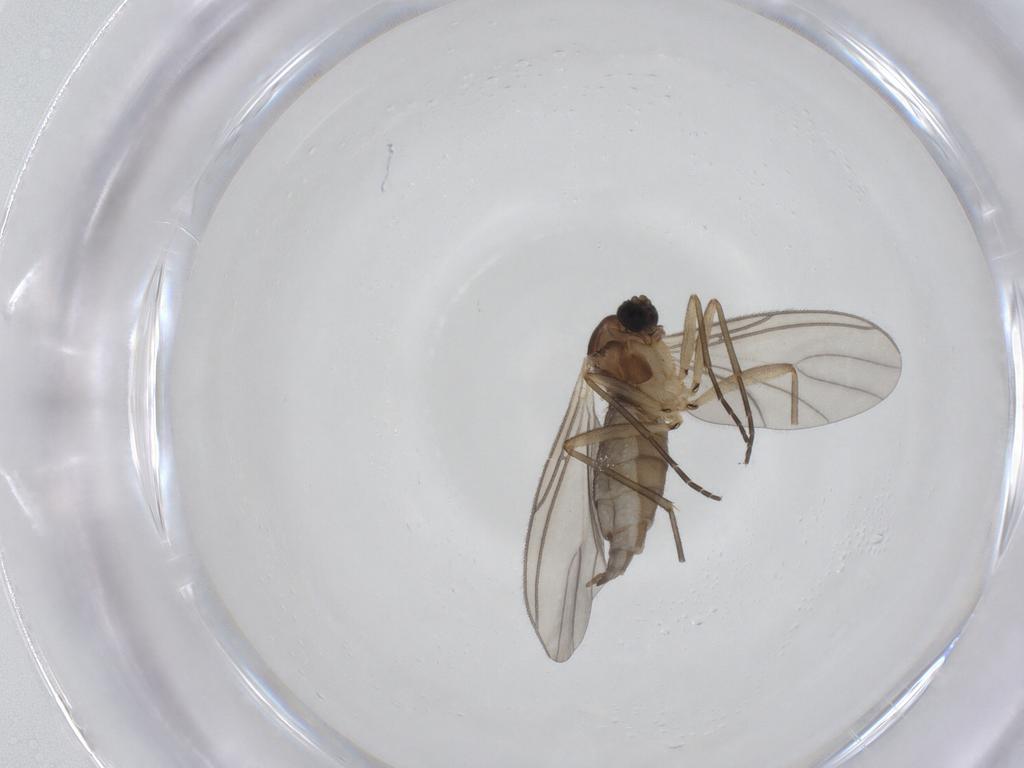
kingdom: Animalia
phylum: Arthropoda
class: Insecta
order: Diptera
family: Sciaridae
